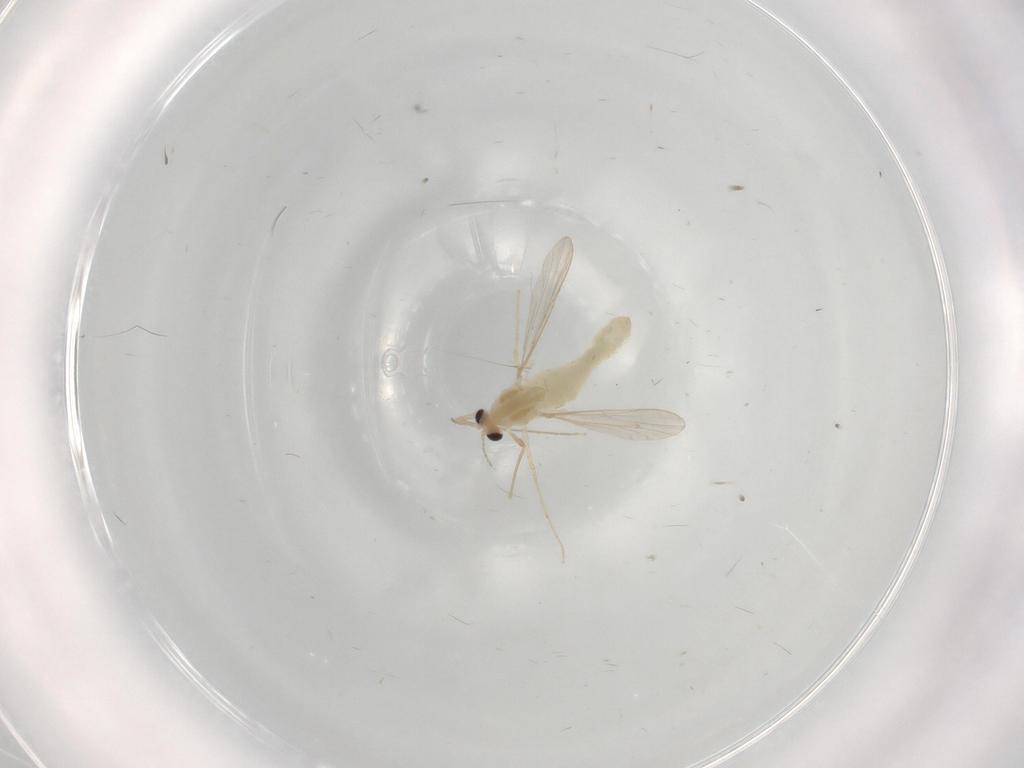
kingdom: Animalia
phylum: Arthropoda
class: Insecta
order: Diptera
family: Chironomidae
